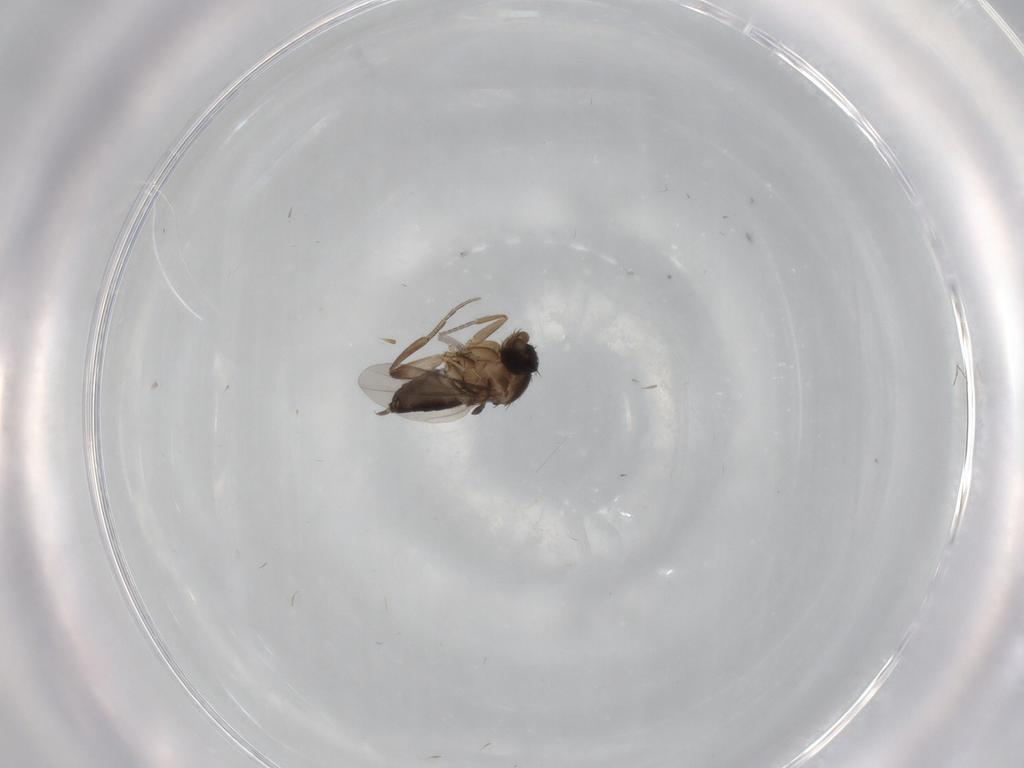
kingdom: Animalia
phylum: Arthropoda
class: Insecta
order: Diptera
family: Phoridae
